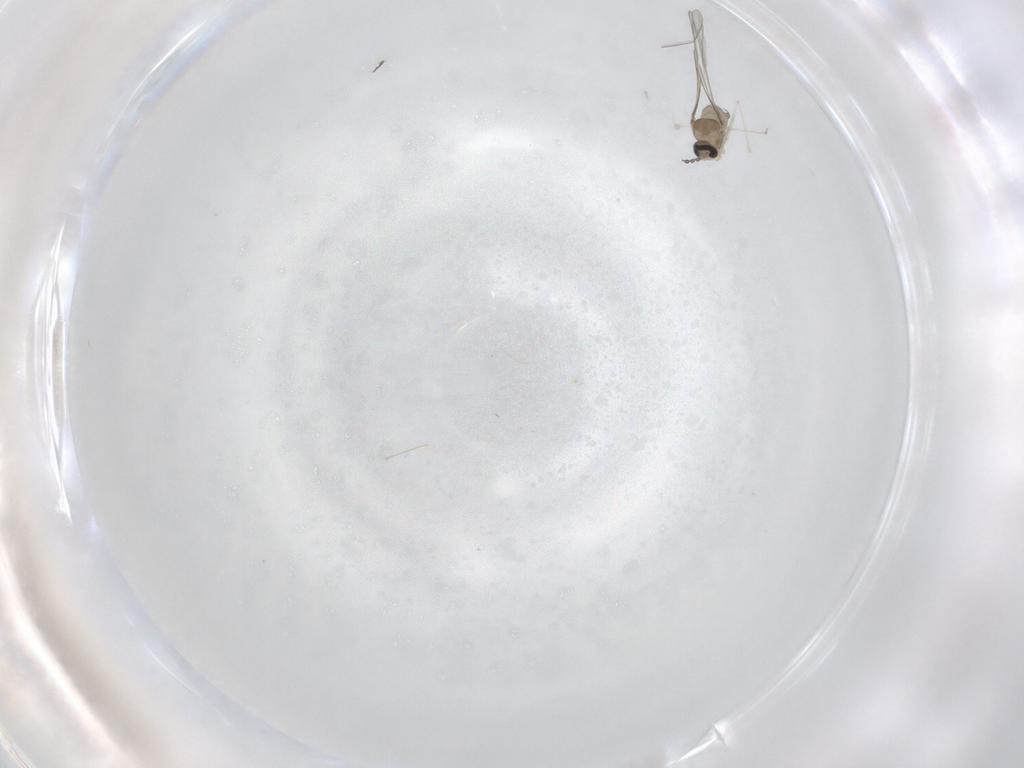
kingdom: Animalia
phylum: Arthropoda
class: Insecta
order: Diptera
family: Cecidomyiidae
